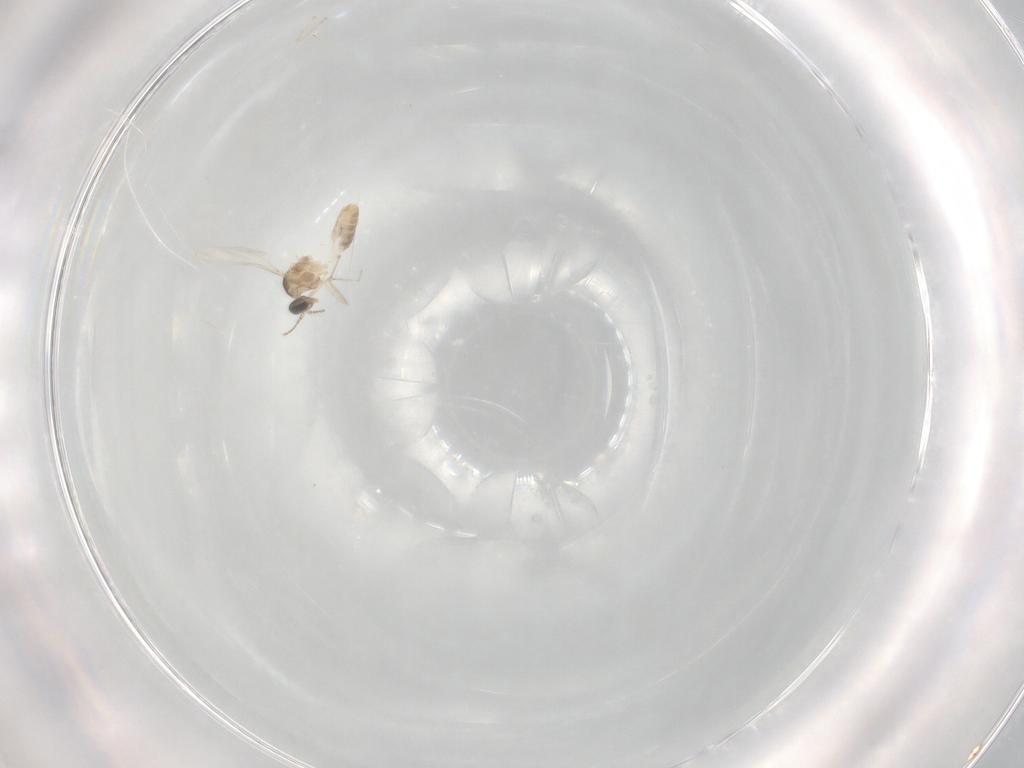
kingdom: Animalia
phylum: Arthropoda
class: Insecta
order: Diptera
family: Cecidomyiidae
